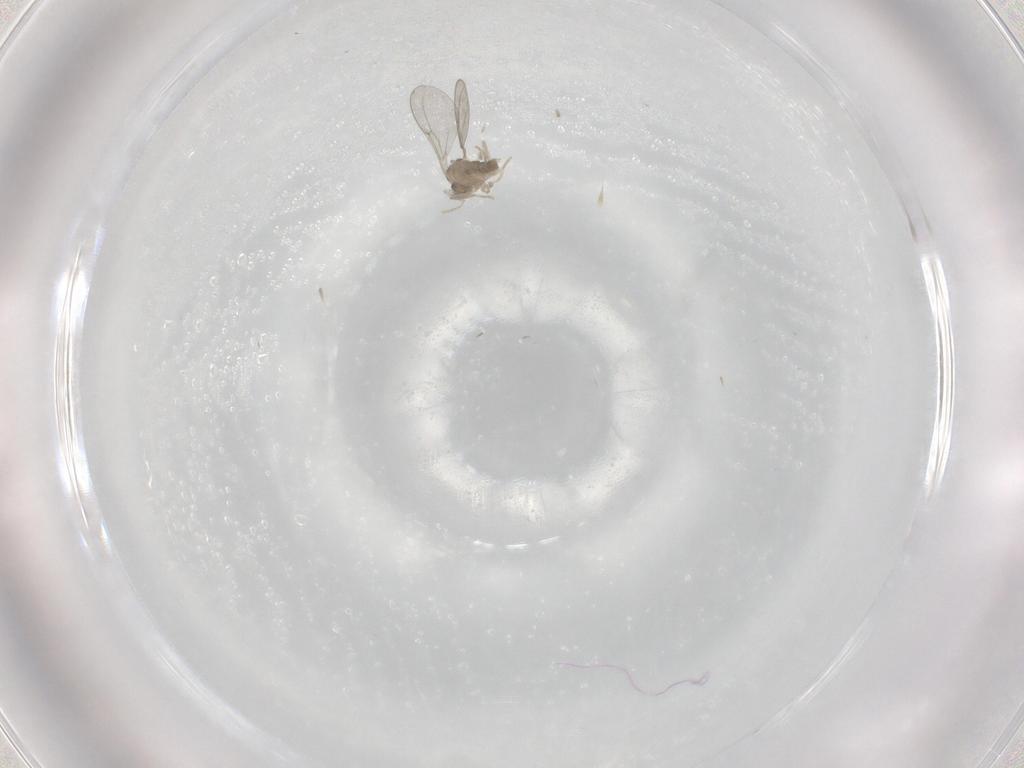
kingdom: Animalia
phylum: Arthropoda
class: Insecta
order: Diptera
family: Cecidomyiidae
